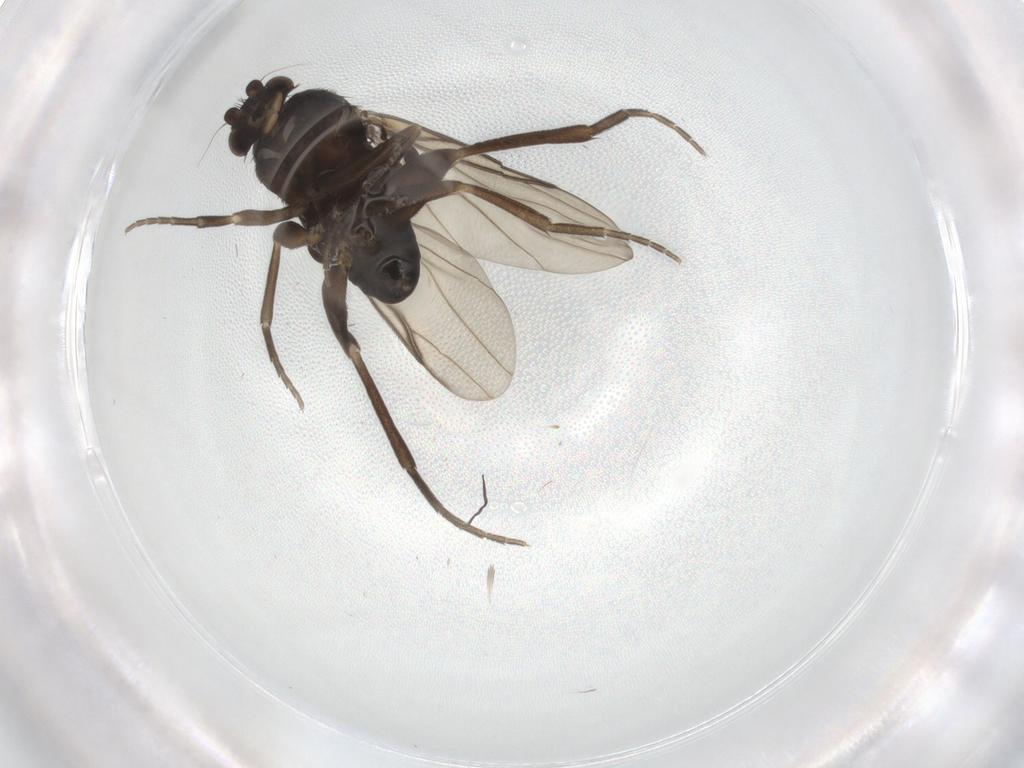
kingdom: Animalia
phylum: Arthropoda
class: Insecta
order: Diptera
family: Phoridae
